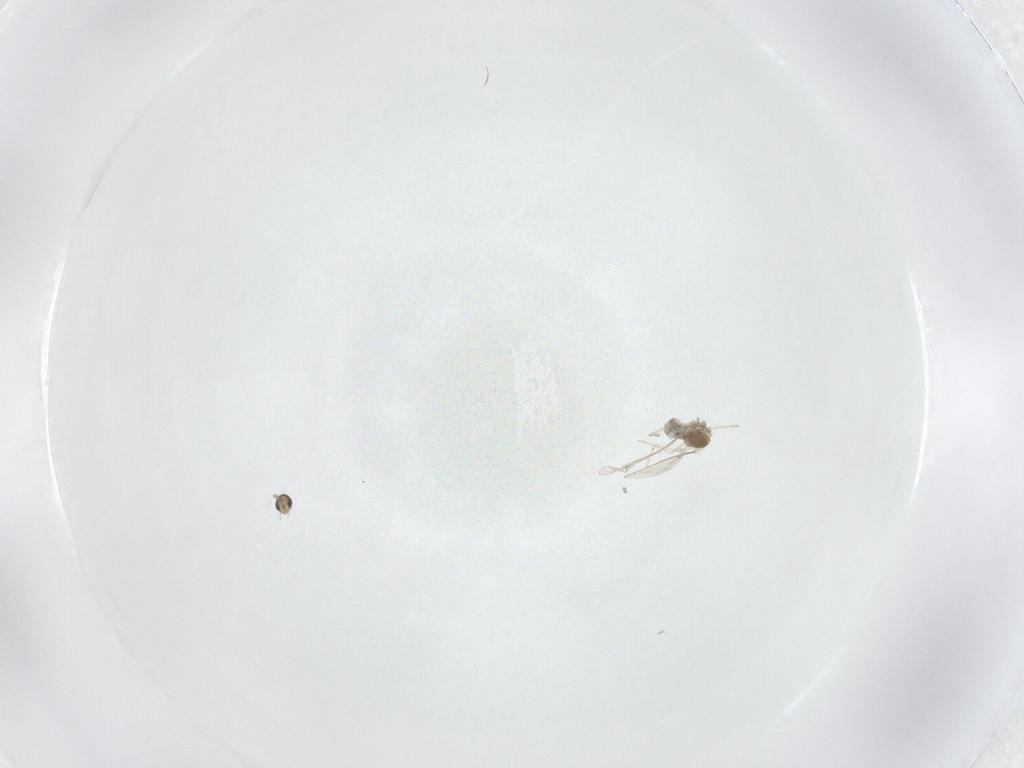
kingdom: Animalia
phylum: Arthropoda
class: Insecta
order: Diptera
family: Cecidomyiidae
